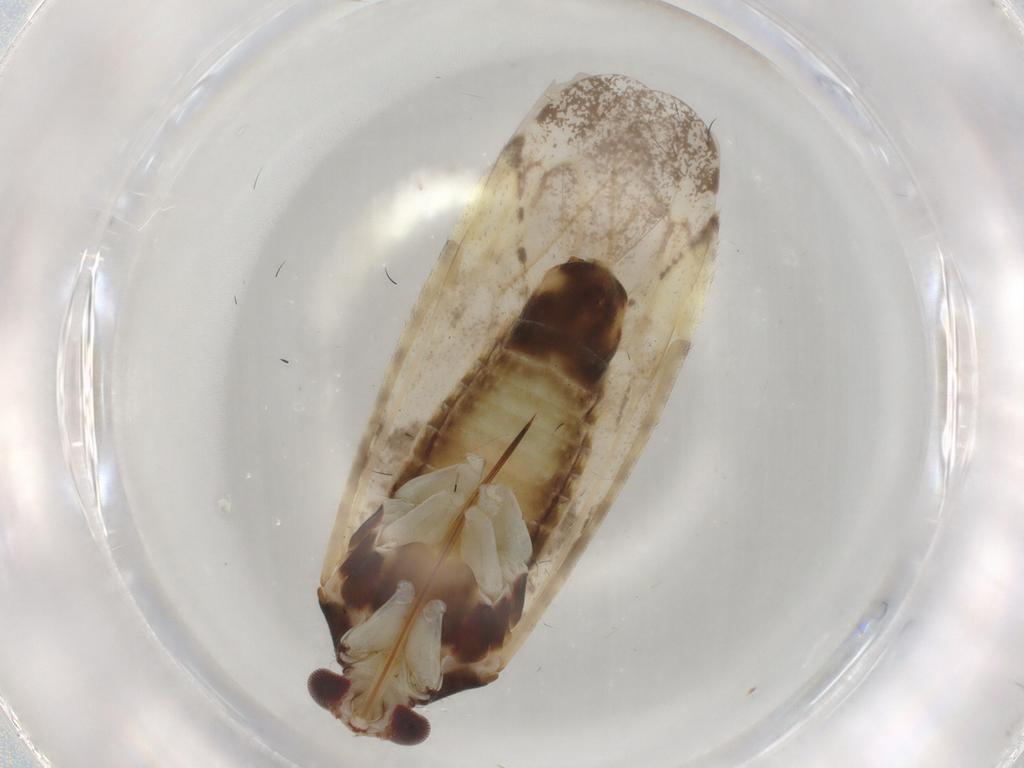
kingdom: Animalia
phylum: Arthropoda
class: Insecta
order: Hemiptera
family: Miridae
